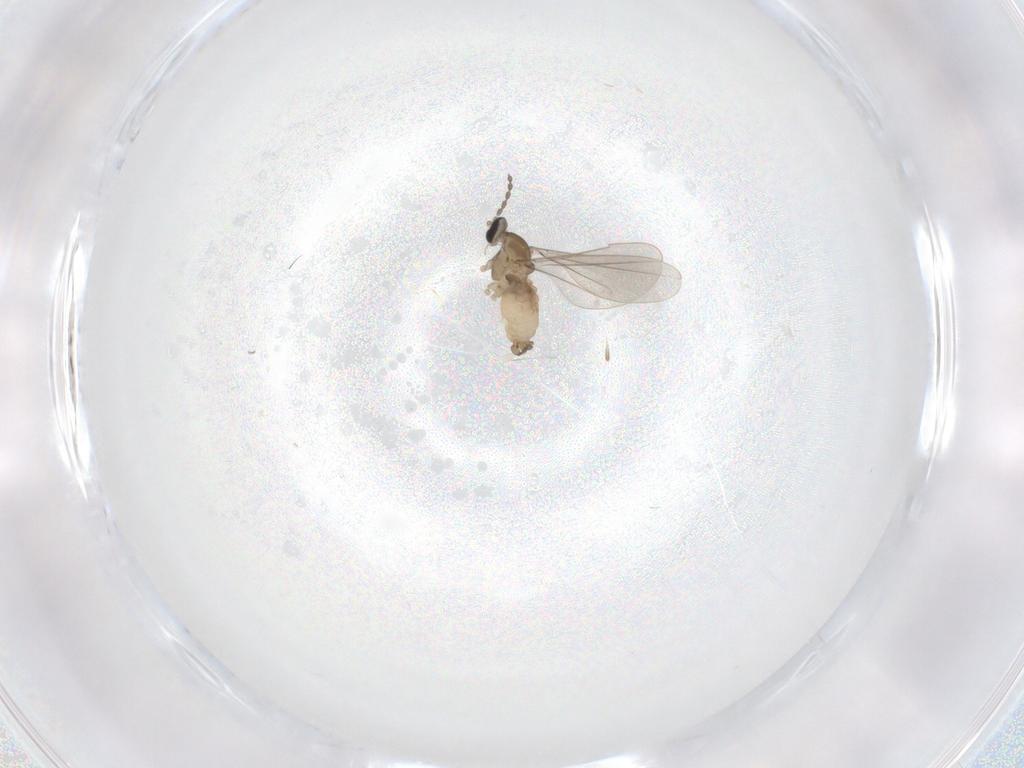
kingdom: Animalia
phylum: Arthropoda
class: Insecta
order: Diptera
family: Cecidomyiidae
